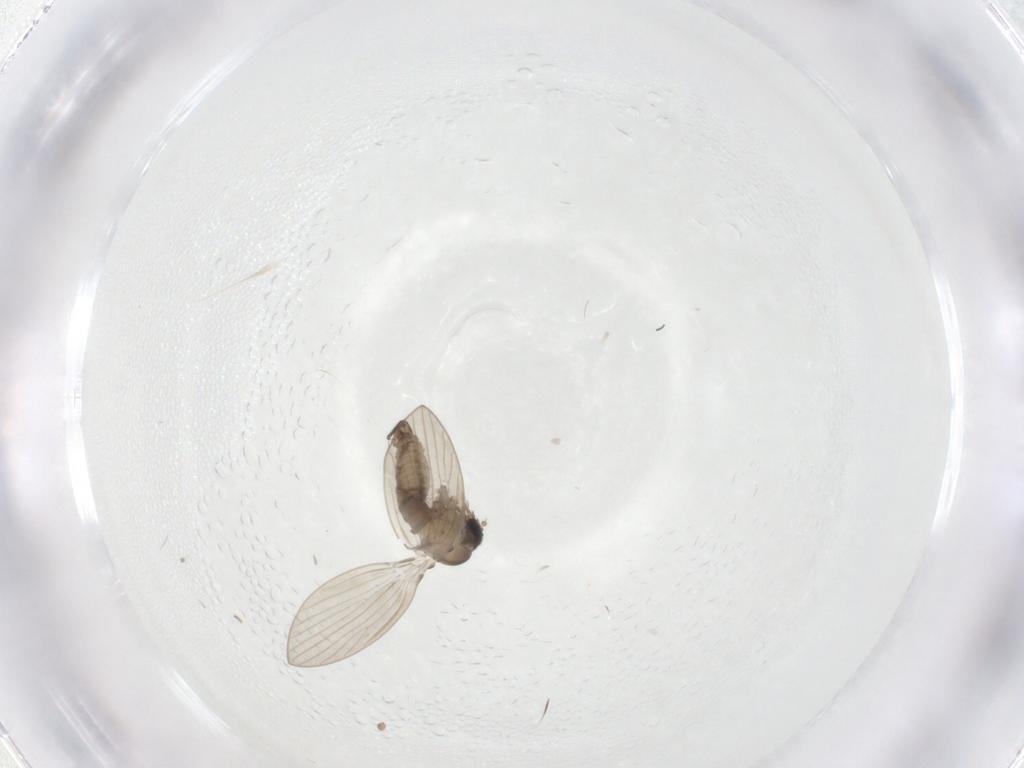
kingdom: Animalia
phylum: Arthropoda
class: Insecta
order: Diptera
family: Psychodidae
